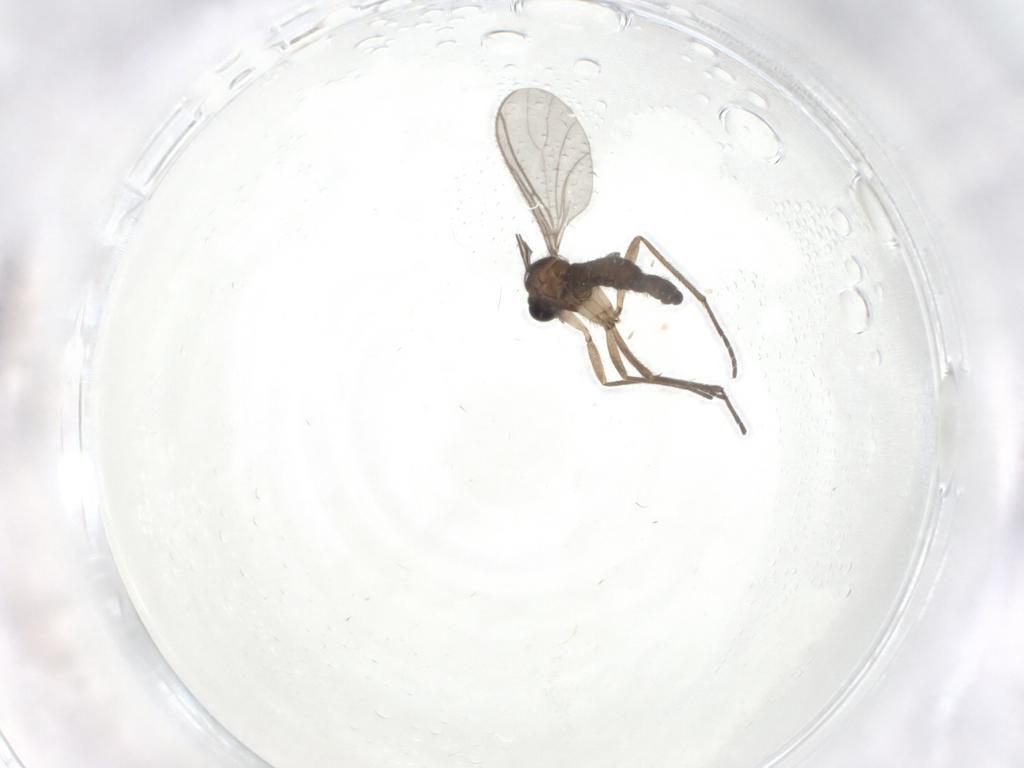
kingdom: Animalia
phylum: Arthropoda
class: Insecta
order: Diptera
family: Sciaridae
